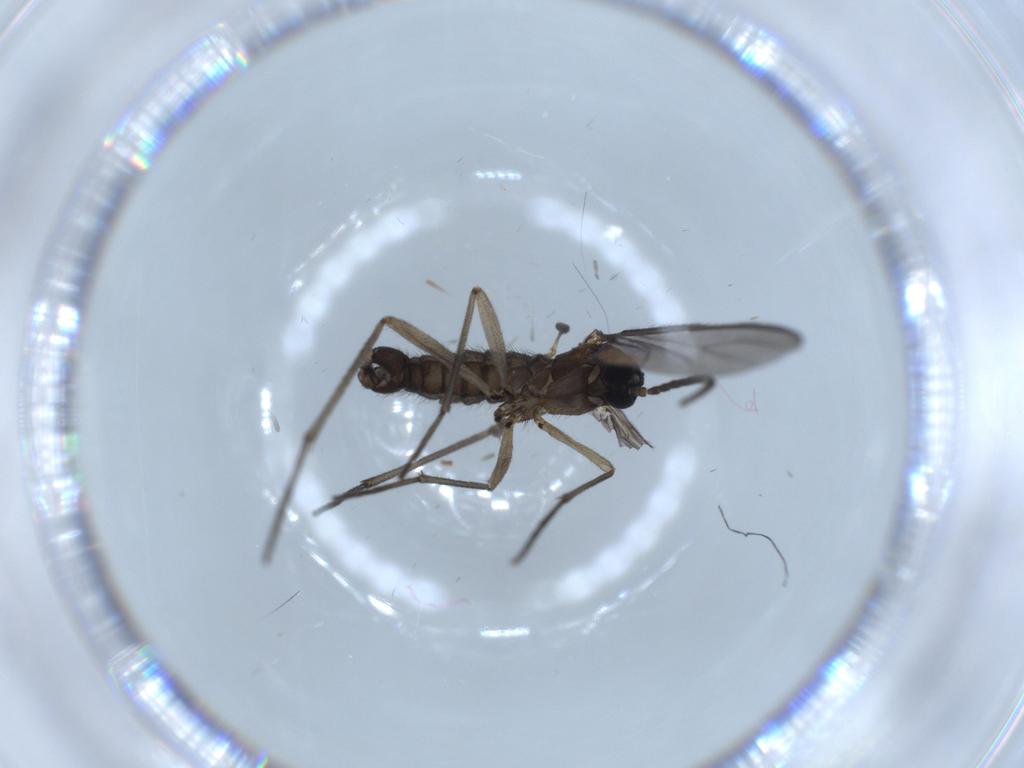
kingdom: Animalia
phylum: Arthropoda
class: Insecta
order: Diptera
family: Sciaridae
